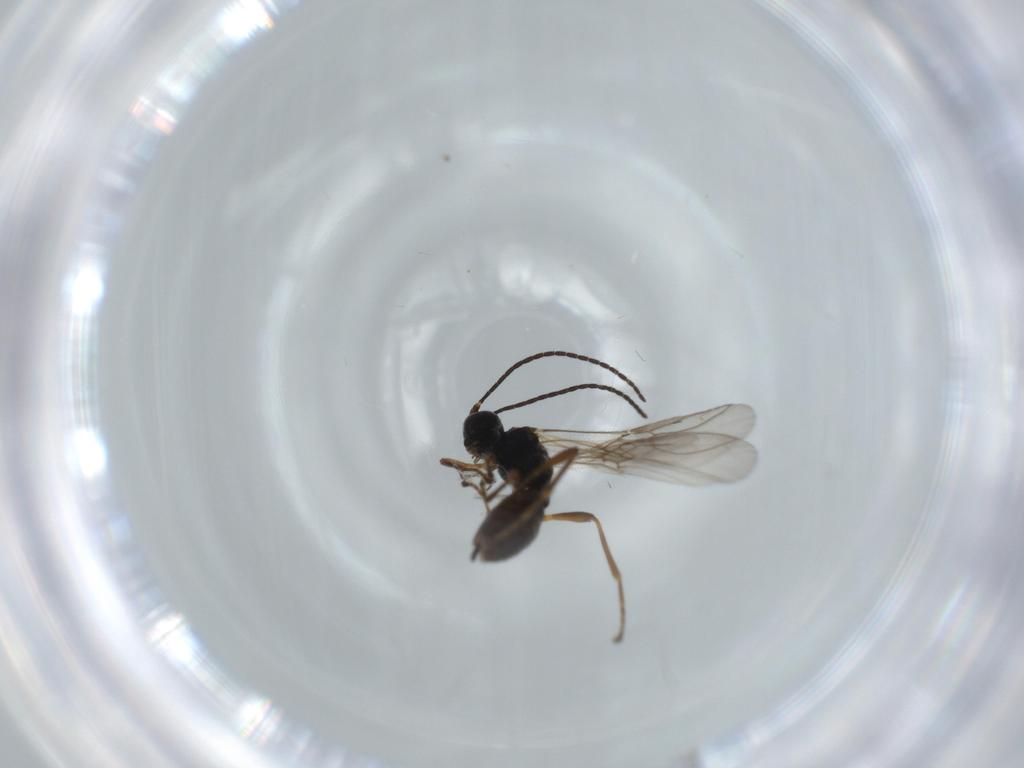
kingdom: Animalia
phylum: Arthropoda
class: Insecta
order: Hymenoptera
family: Braconidae
